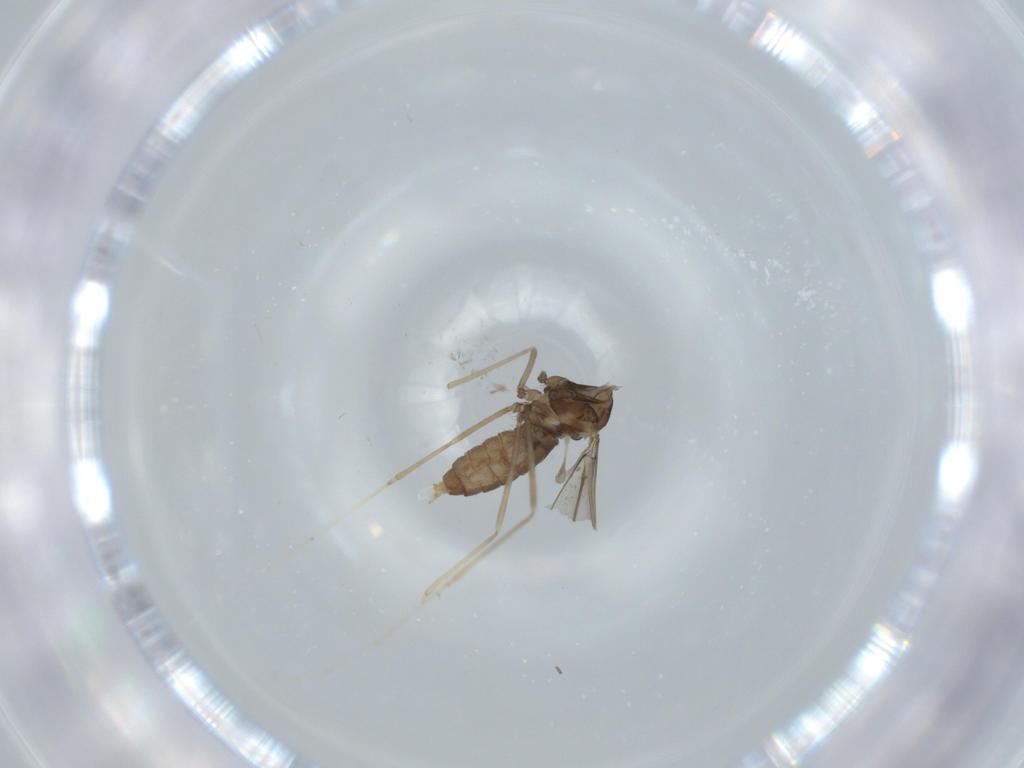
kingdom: Animalia
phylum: Arthropoda
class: Insecta
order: Diptera
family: Cecidomyiidae
